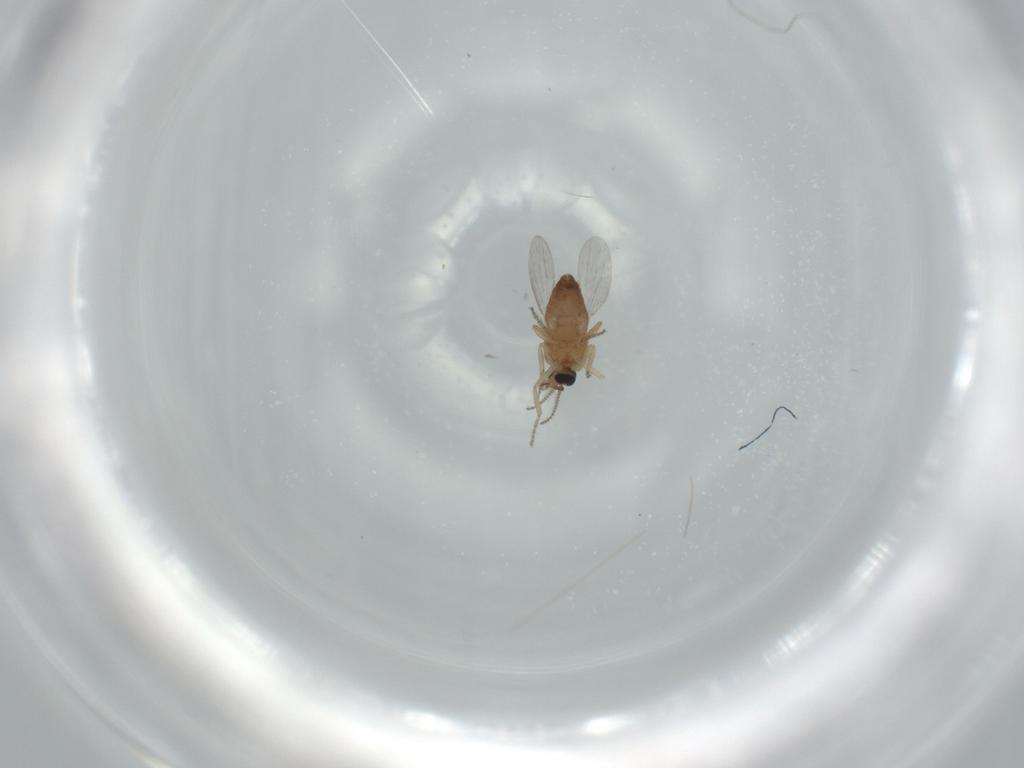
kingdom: Animalia
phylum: Arthropoda
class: Insecta
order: Diptera
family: Ceratopogonidae
